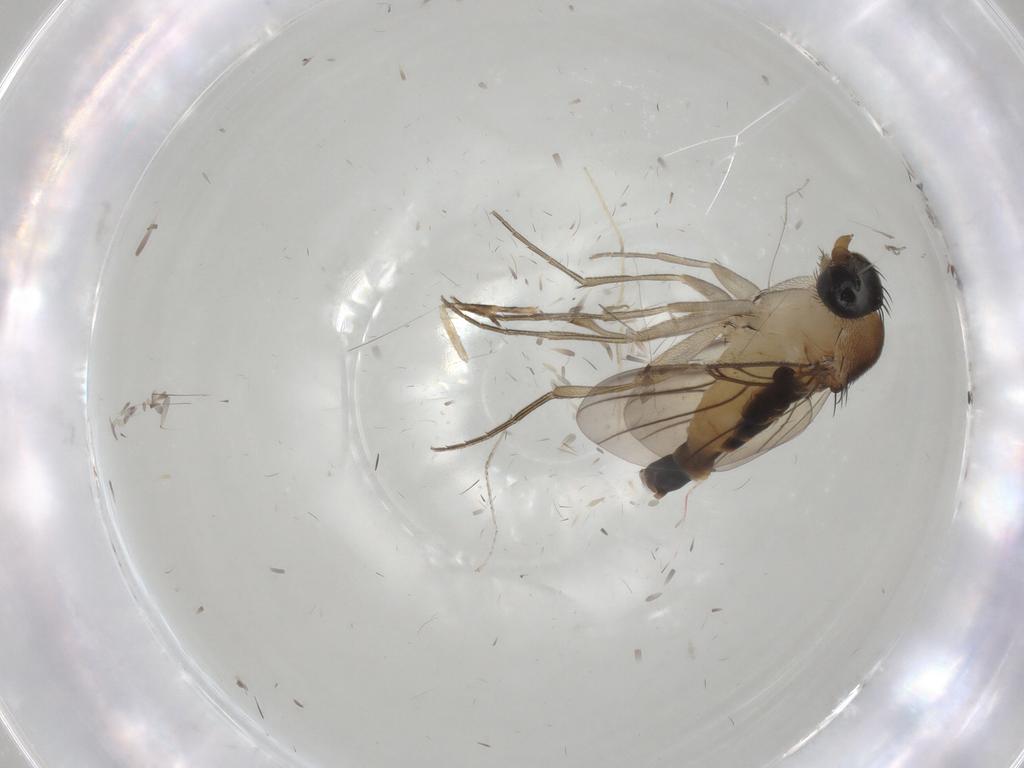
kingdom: Animalia
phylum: Arthropoda
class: Insecta
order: Diptera
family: Phoridae
